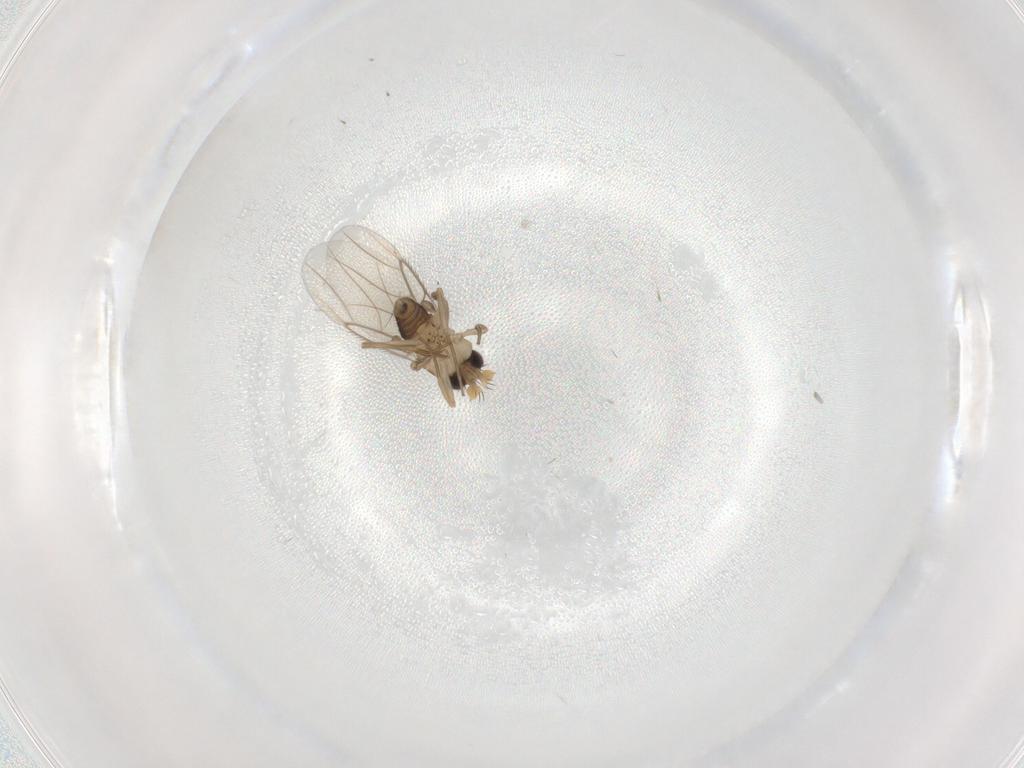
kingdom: Animalia
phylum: Arthropoda
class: Insecta
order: Diptera
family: Phoridae
